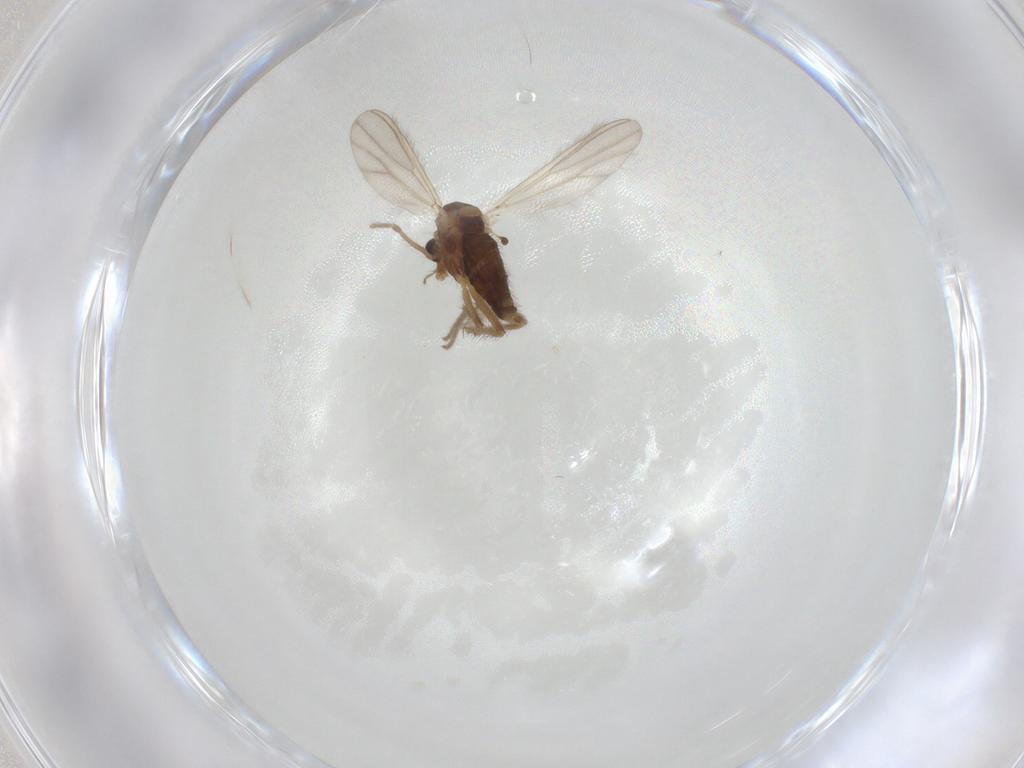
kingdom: Animalia
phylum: Arthropoda
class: Insecta
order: Diptera
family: Chironomidae
